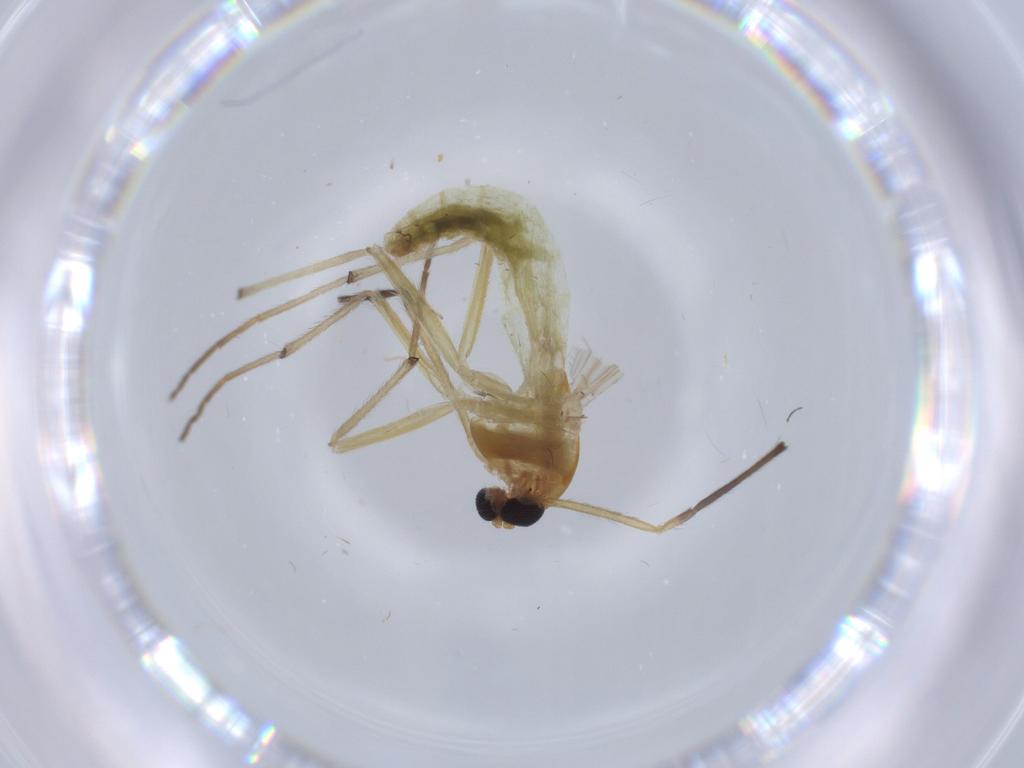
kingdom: Animalia
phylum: Arthropoda
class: Insecta
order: Diptera
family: Chironomidae
